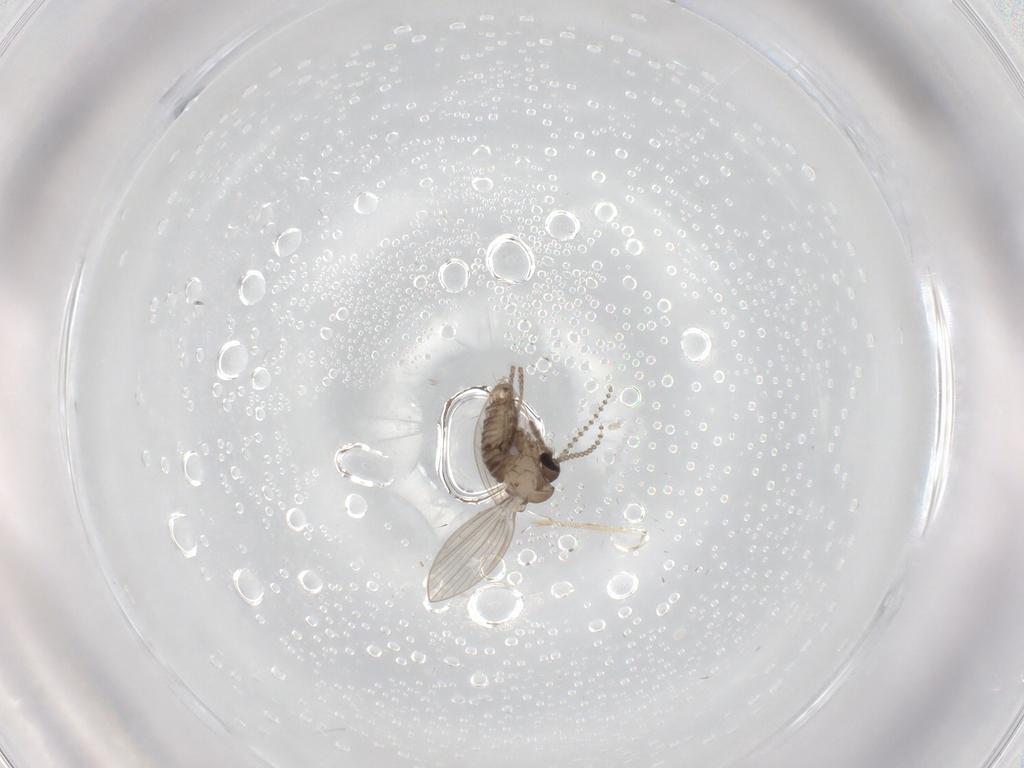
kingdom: Animalia
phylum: Arthropoda
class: Insecta
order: Diptera
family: Psychodidae
